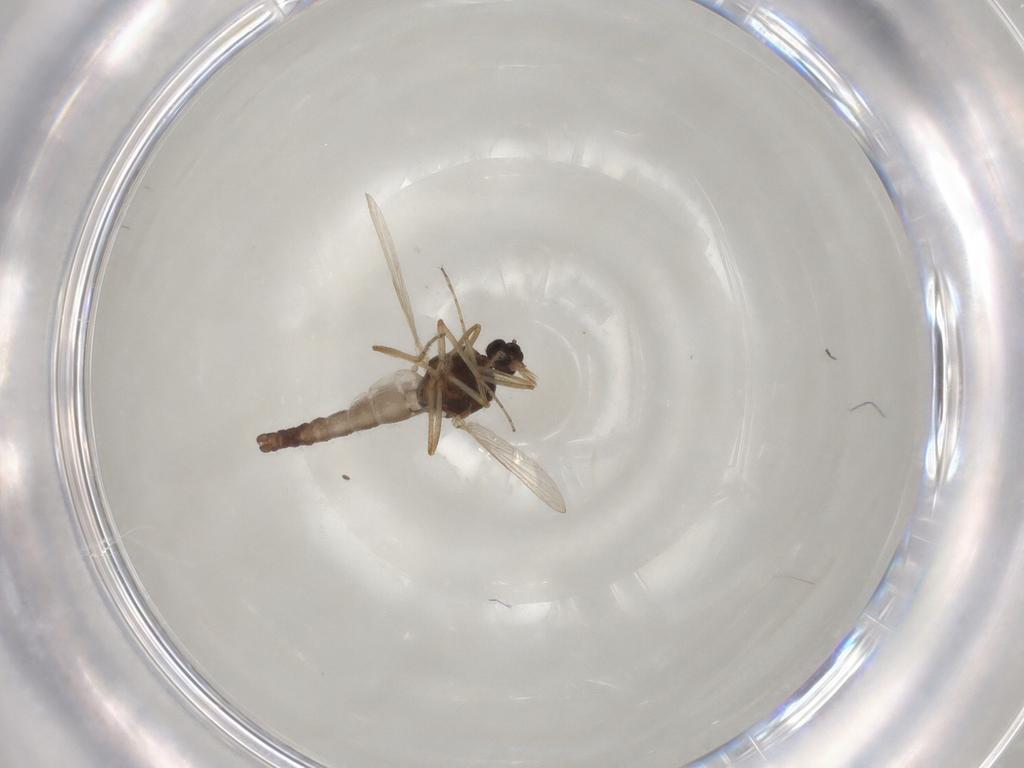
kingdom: Animalia
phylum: Arthropoda
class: Insecta
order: Diptera
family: Ceratopogonidae
